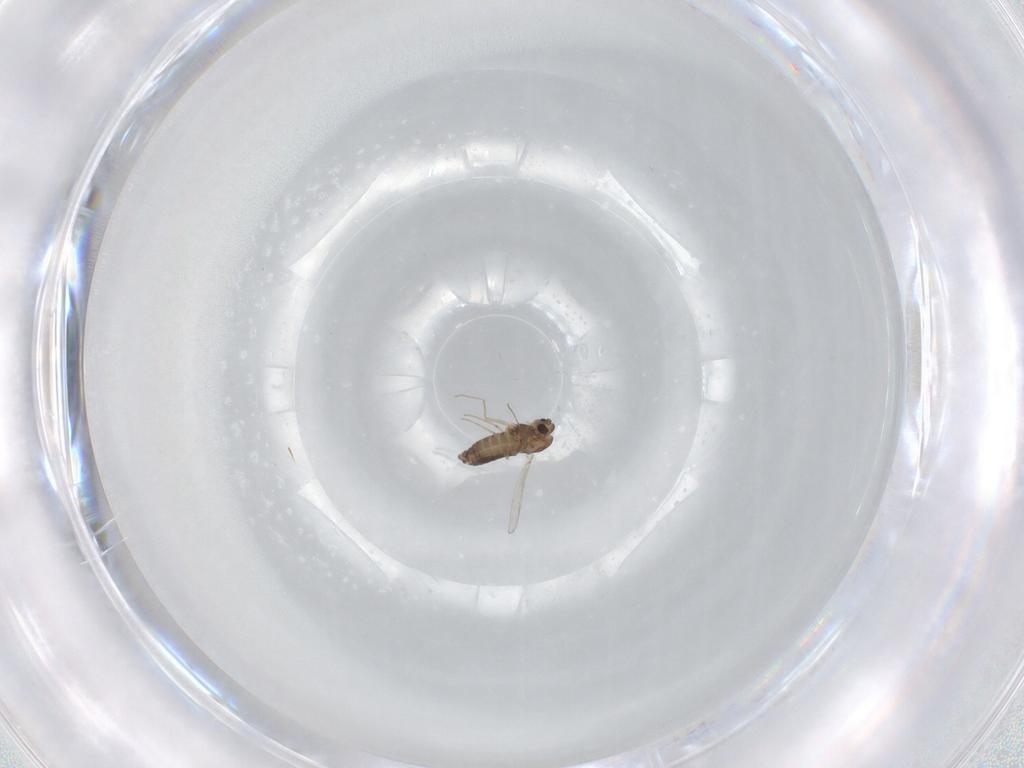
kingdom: Animalia
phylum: Arthropoda
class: Insecta
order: Diptera
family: Chironomidae
